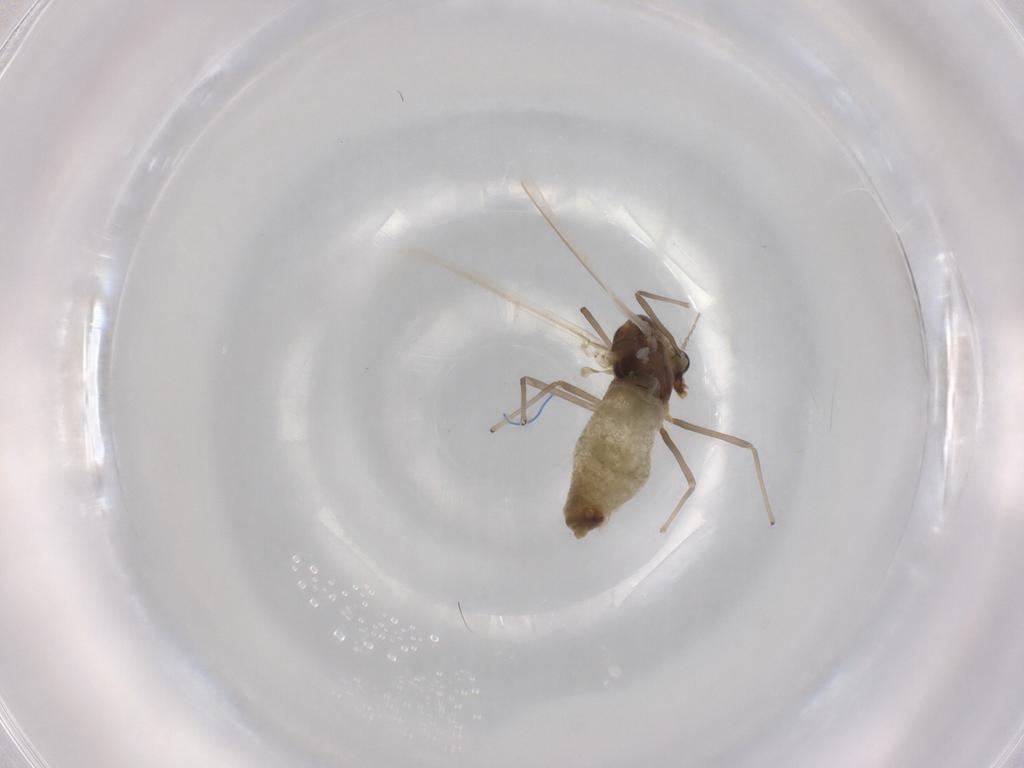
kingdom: Animalia
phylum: Arthropoda
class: Insecta
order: Diptera
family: Chironomidae
